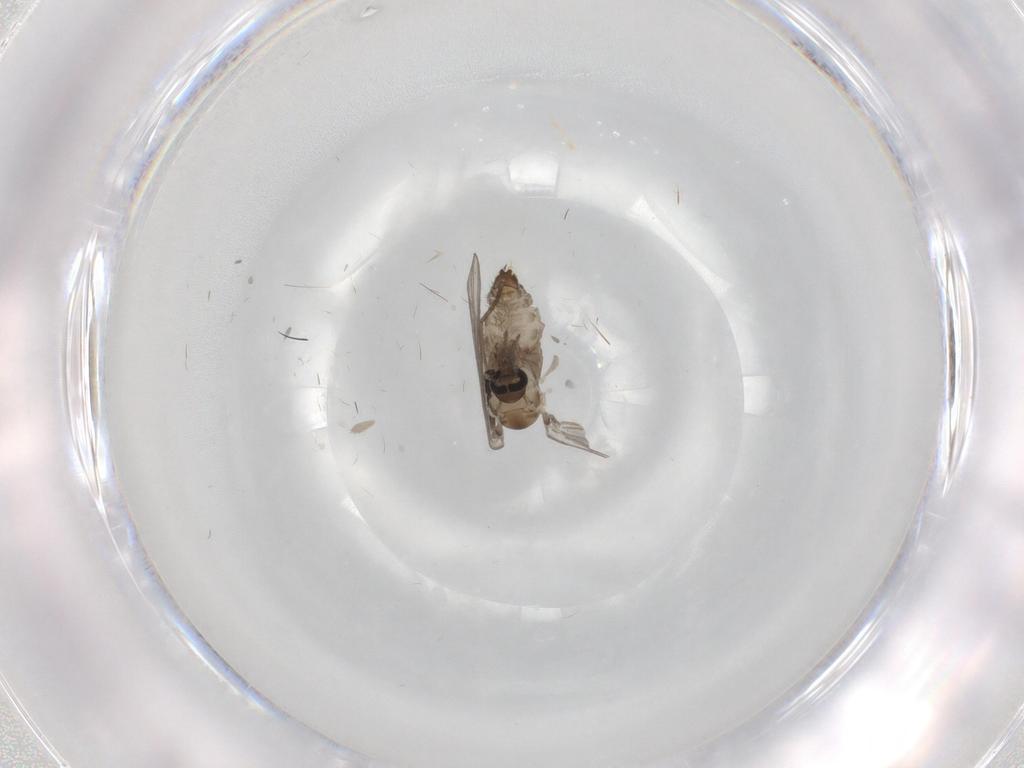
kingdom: Animalia
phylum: Arthropoda
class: Insecta
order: Diptera
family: Psychodidae
